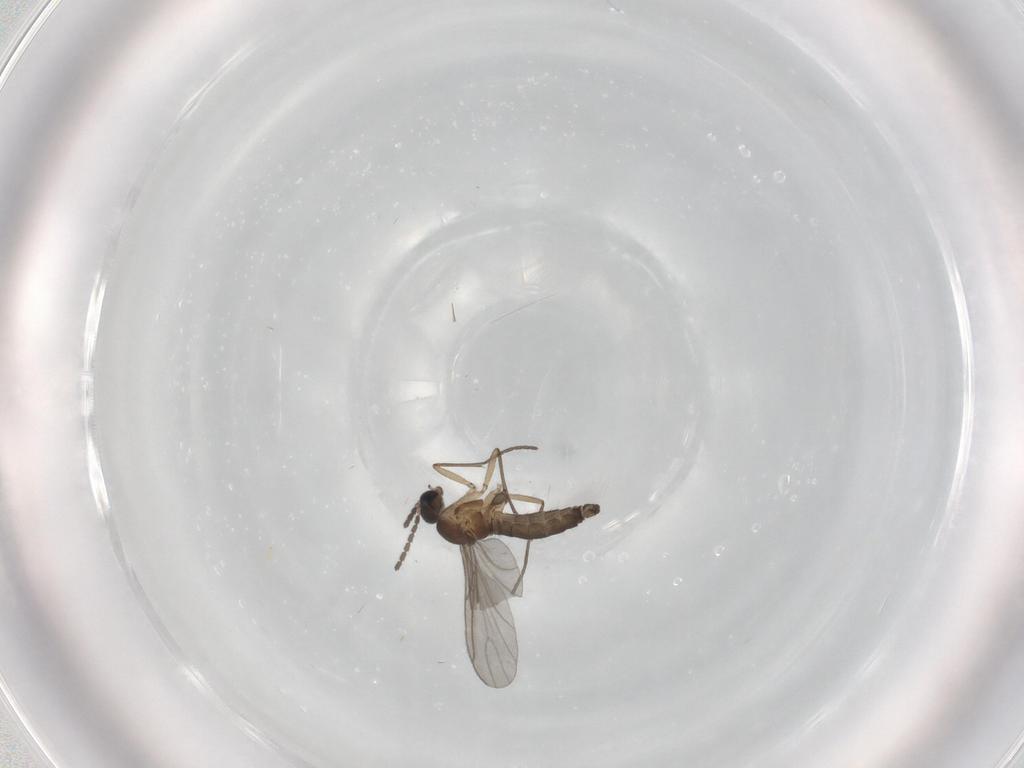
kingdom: Animalia
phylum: Arthropoda
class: Insecta
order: Diptera
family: Sciaridae
